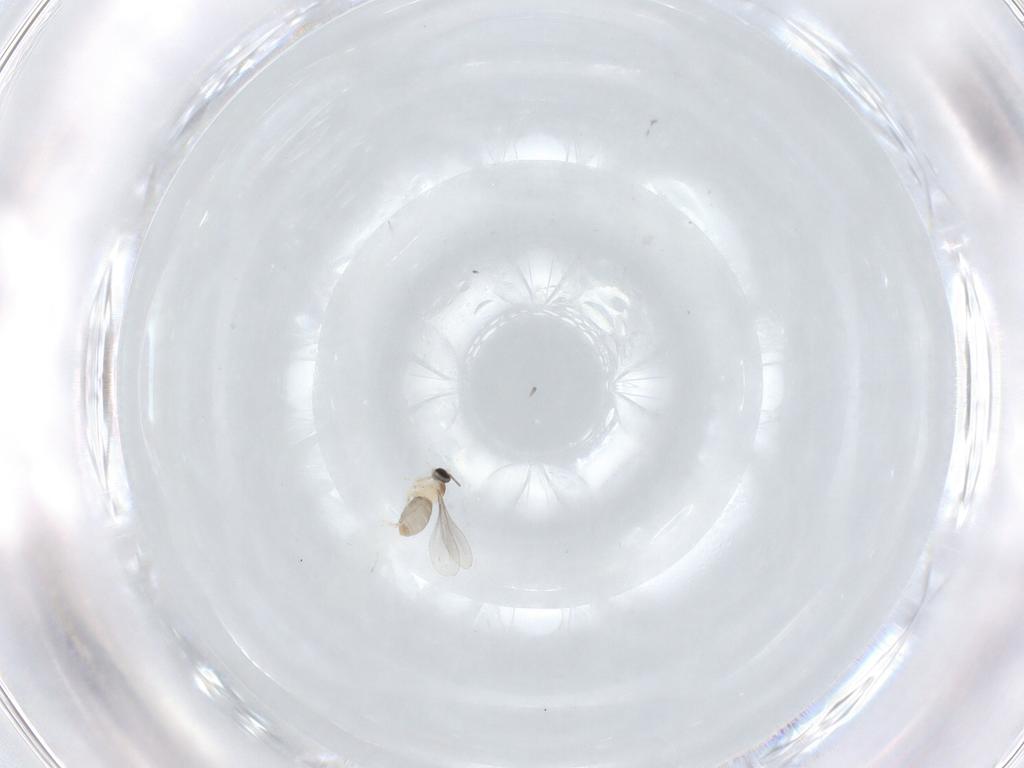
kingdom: Animalia
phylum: Arthropoda
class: Insecta
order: Diptera
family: Cecidomyiidae
